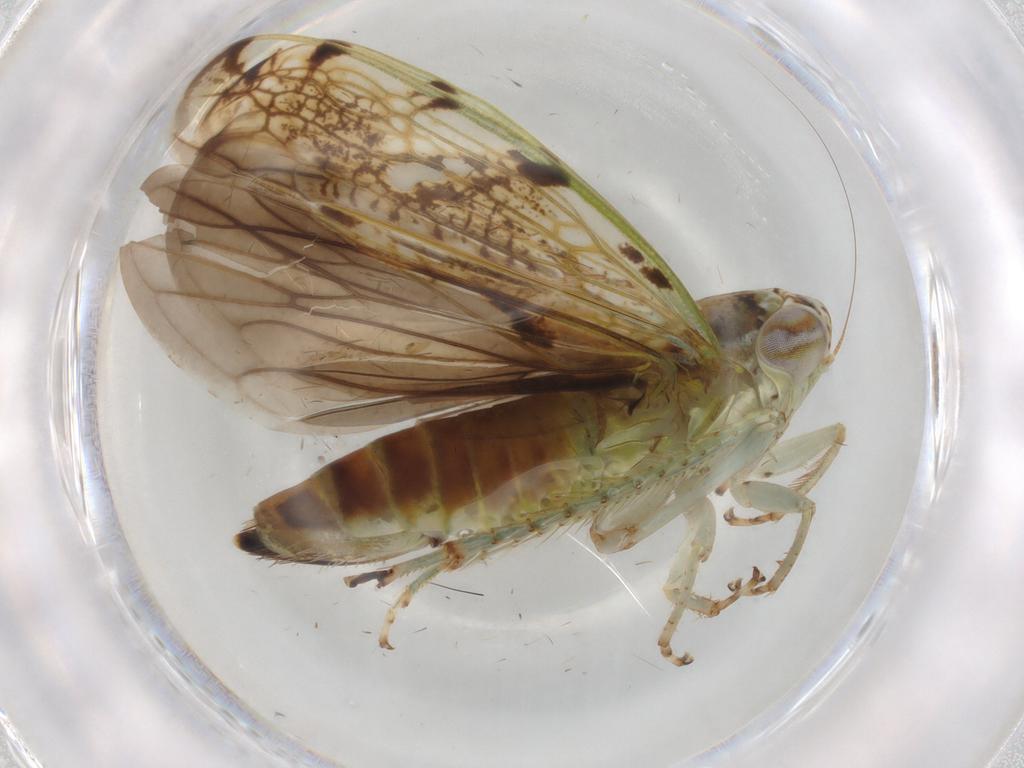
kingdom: Animalia
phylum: Arthropoda
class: Insecta
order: Hemiptera
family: Cicadellidae
